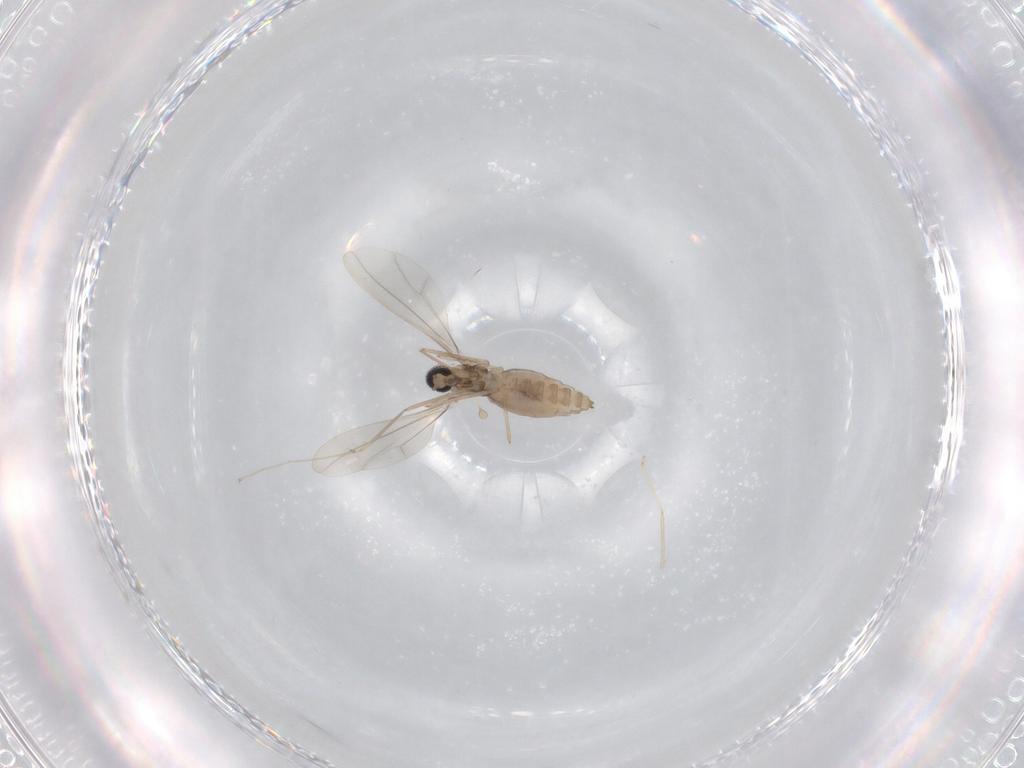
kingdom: Animalia
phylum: Arthropoda
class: Insecta
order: Diptera
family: Cecidomyiidae
